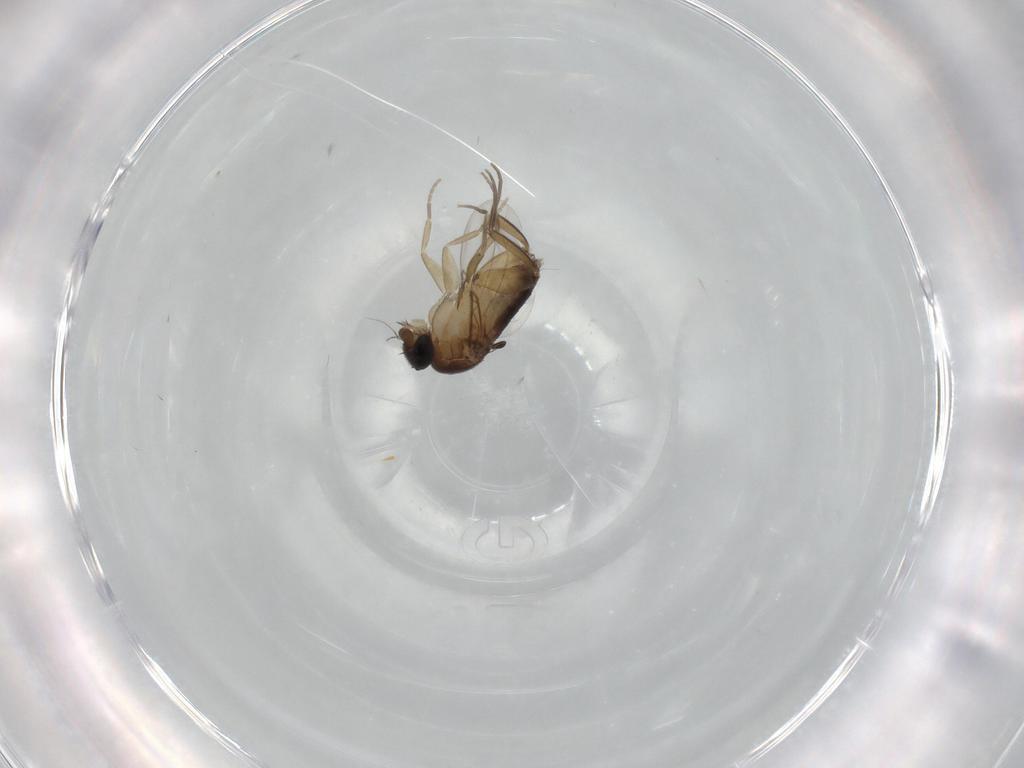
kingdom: Animalia
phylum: Arthropoda
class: Insecta
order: Diptera
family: Phoridae
